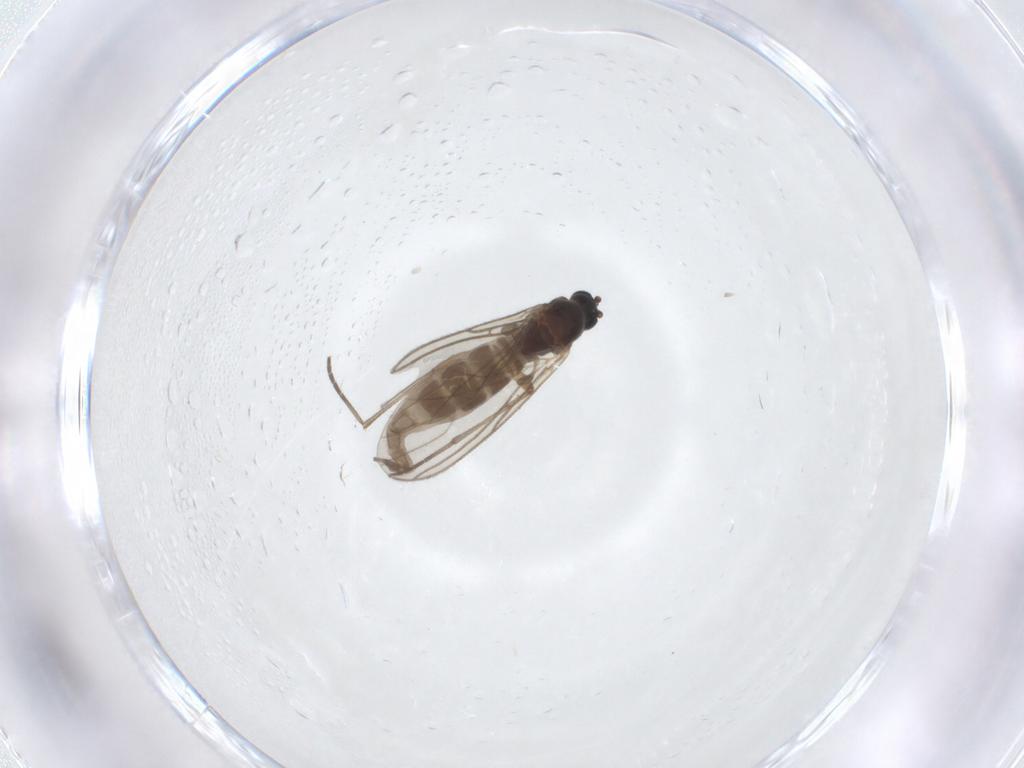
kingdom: Animalia
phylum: Arthropoda
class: Insecta
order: Diptera
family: Sciaridae
